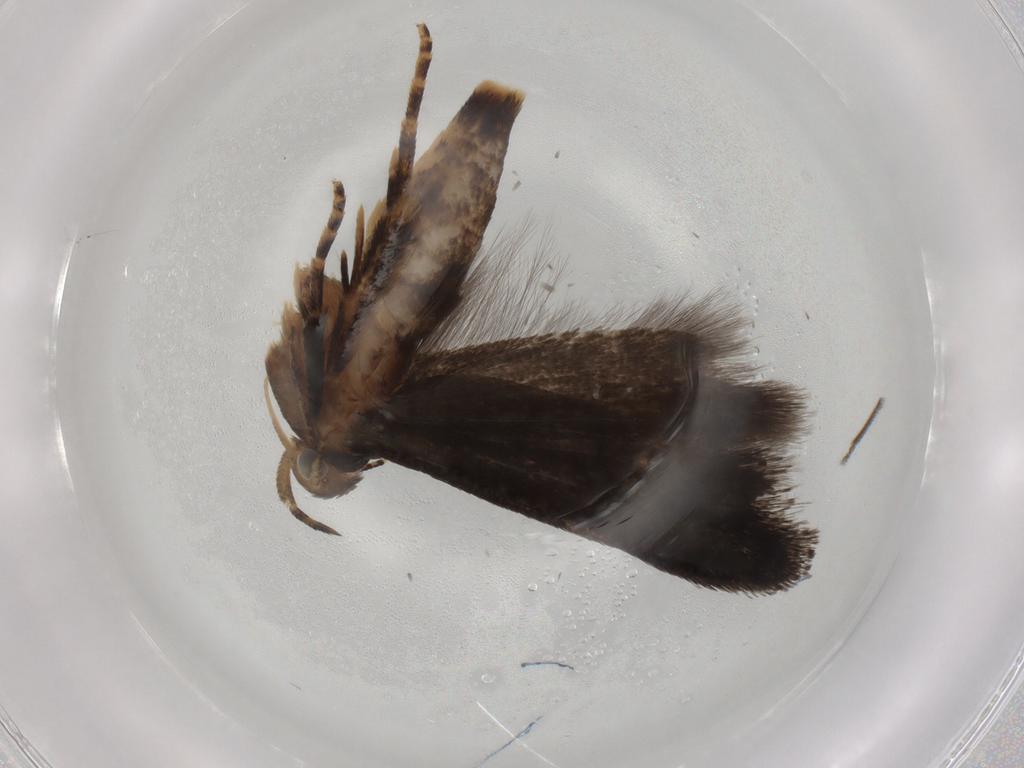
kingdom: Animalia
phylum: Arthropoda
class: Insecta
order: Lepidoptera
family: Gelechiidae
